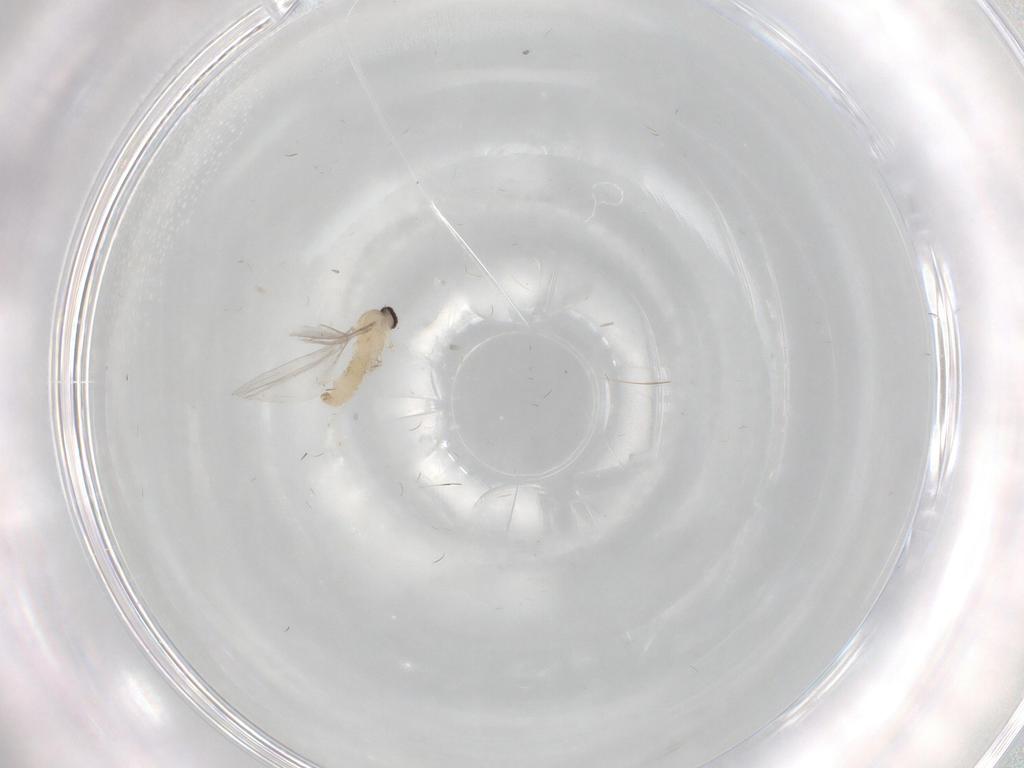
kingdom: Animalia
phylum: Arthropoda
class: Insecta
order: Diptera
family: Cecidomyiidae
